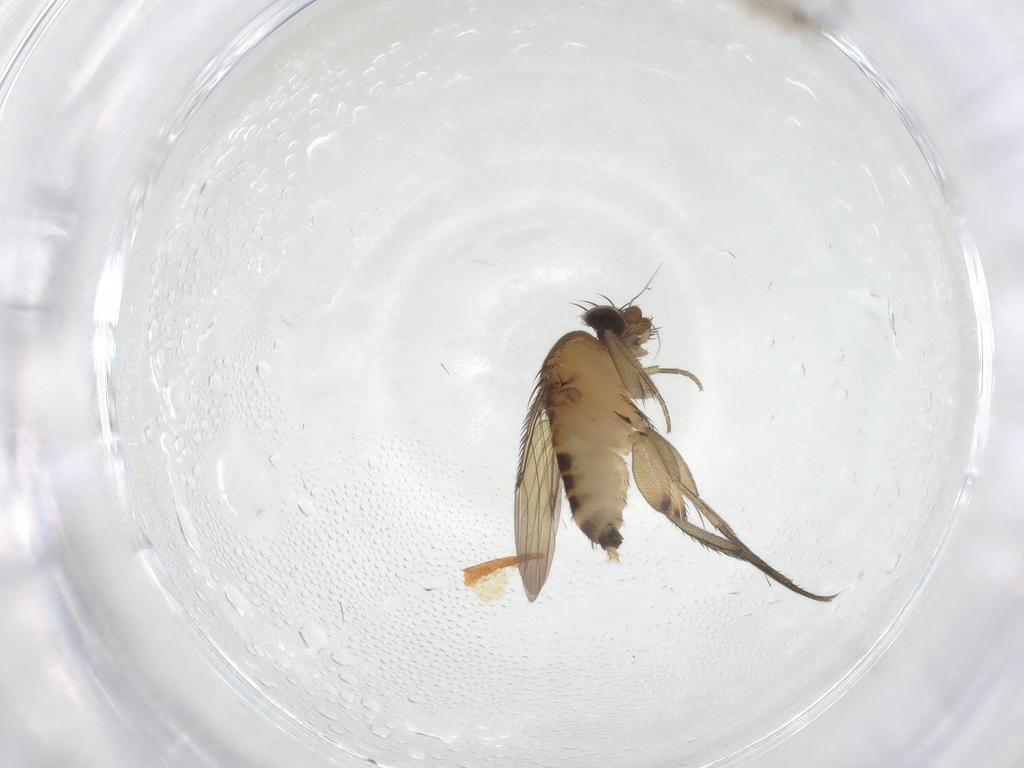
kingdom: Animalia
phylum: Arthropoda
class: Insecta
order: Diptera
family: Phoridae
